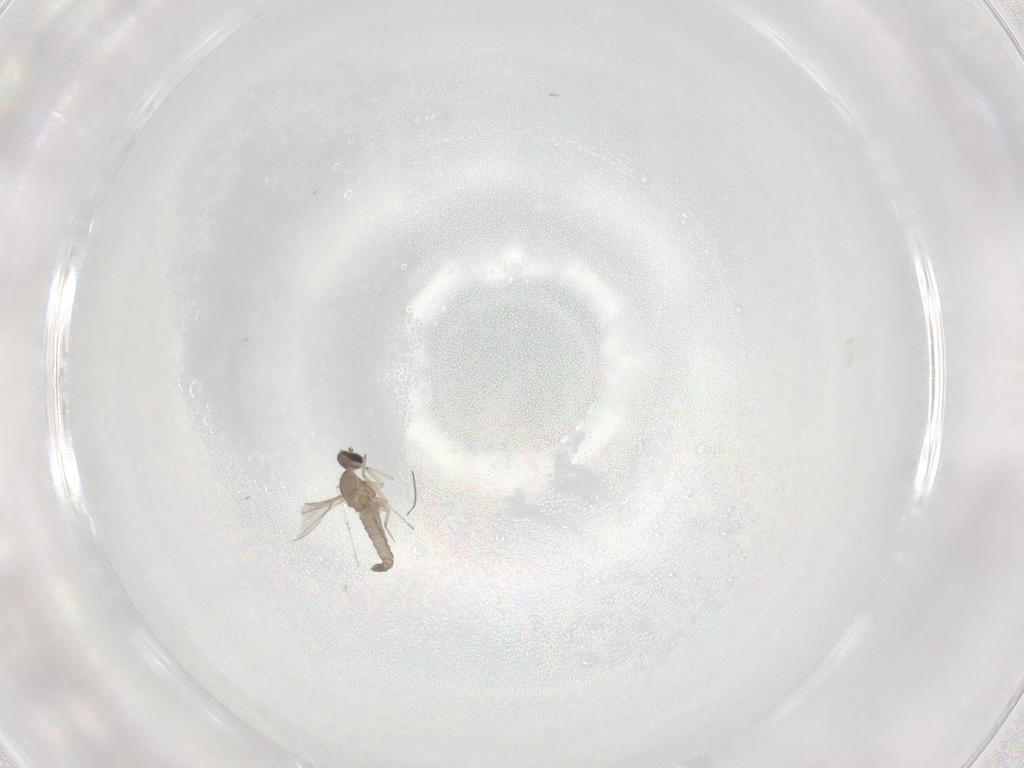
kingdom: Animalia
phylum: Arthropoda
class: Insecta
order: Diptera
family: Cecidomyiidae
